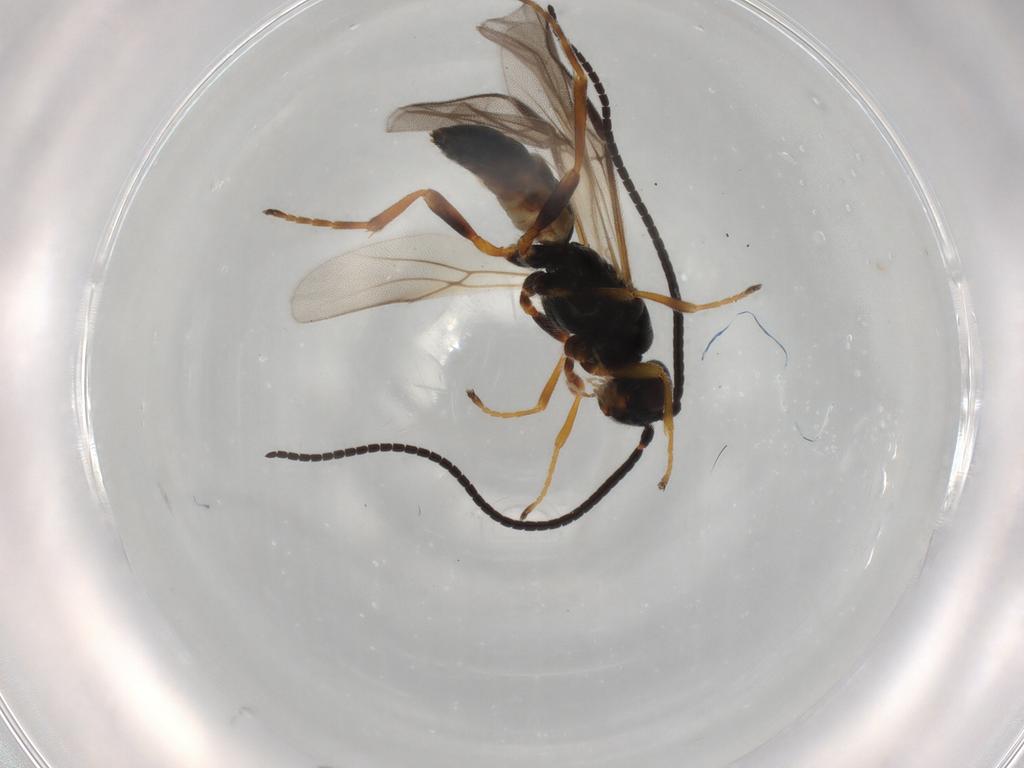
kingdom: Animalia
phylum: Arthropoda
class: Insecta
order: Hymenoptera
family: Braconidae
